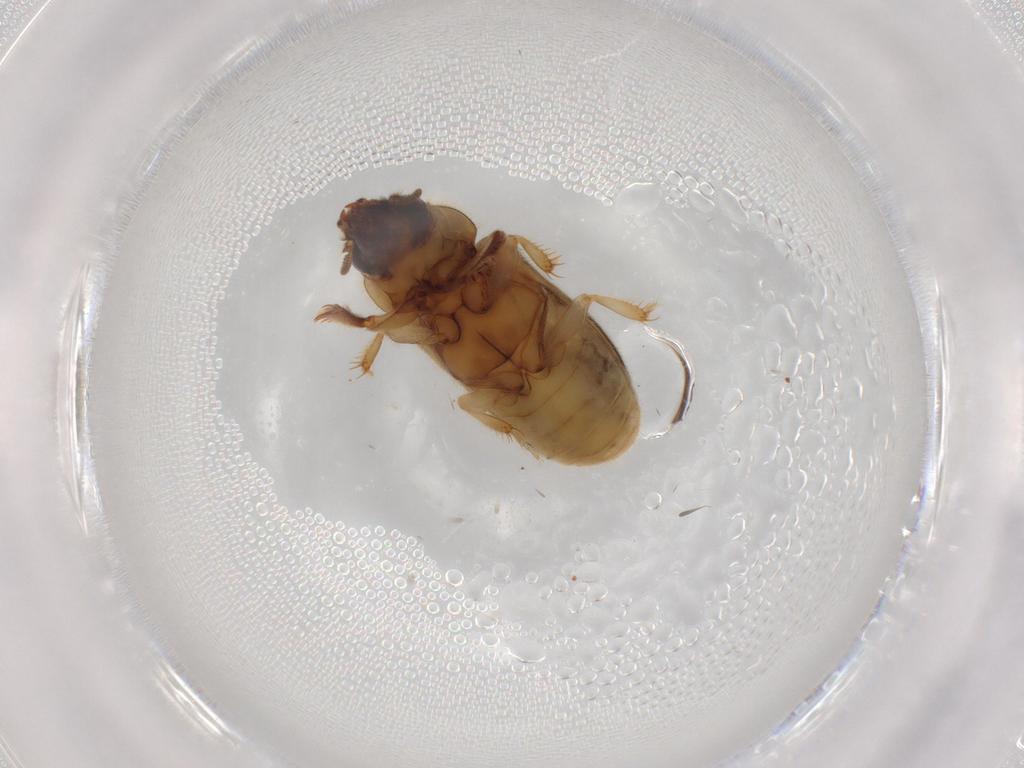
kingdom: Animalia
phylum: Arthropoda
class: Insecta
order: Coleoptera
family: Heteroceridae
